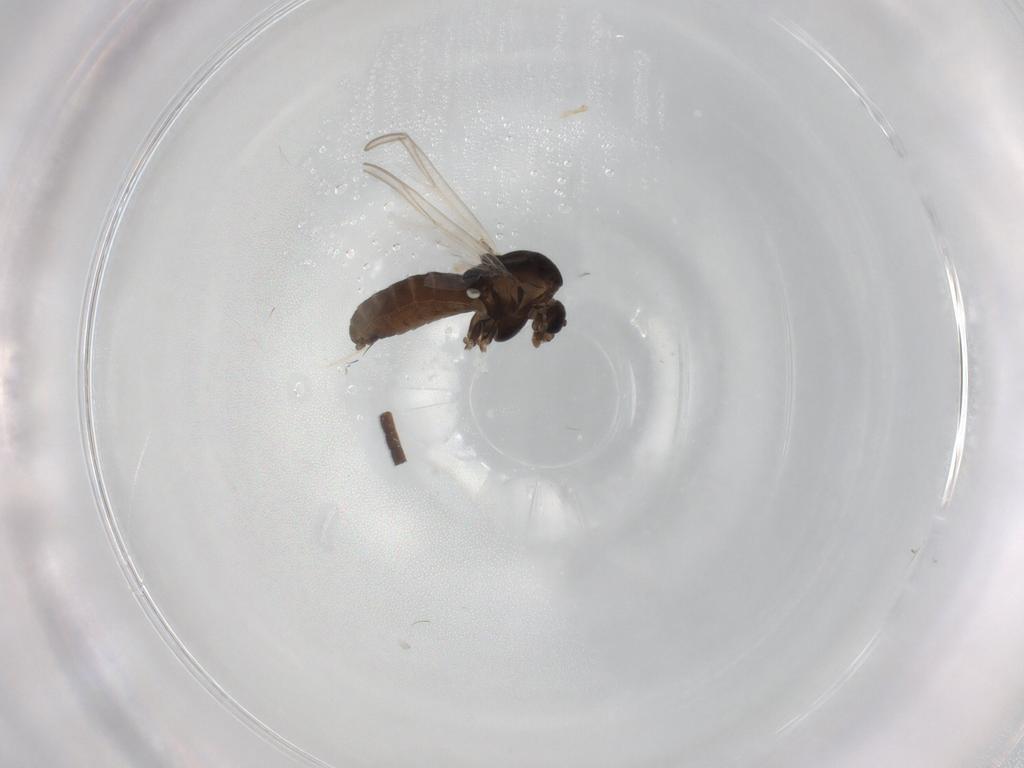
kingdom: Animalia
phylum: Arthropoda
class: Insecta
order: Diptera
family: Chironomidae
